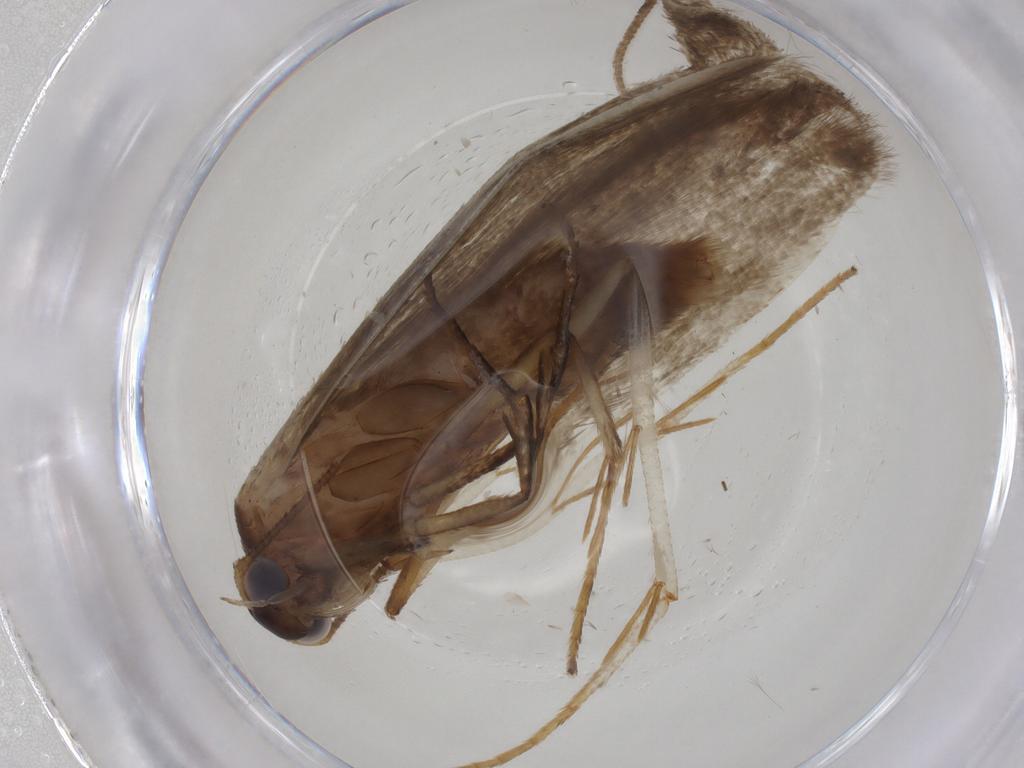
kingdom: Animalia
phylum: Arthropoda
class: Insecta
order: Lepidoptera
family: Blastobasidae
